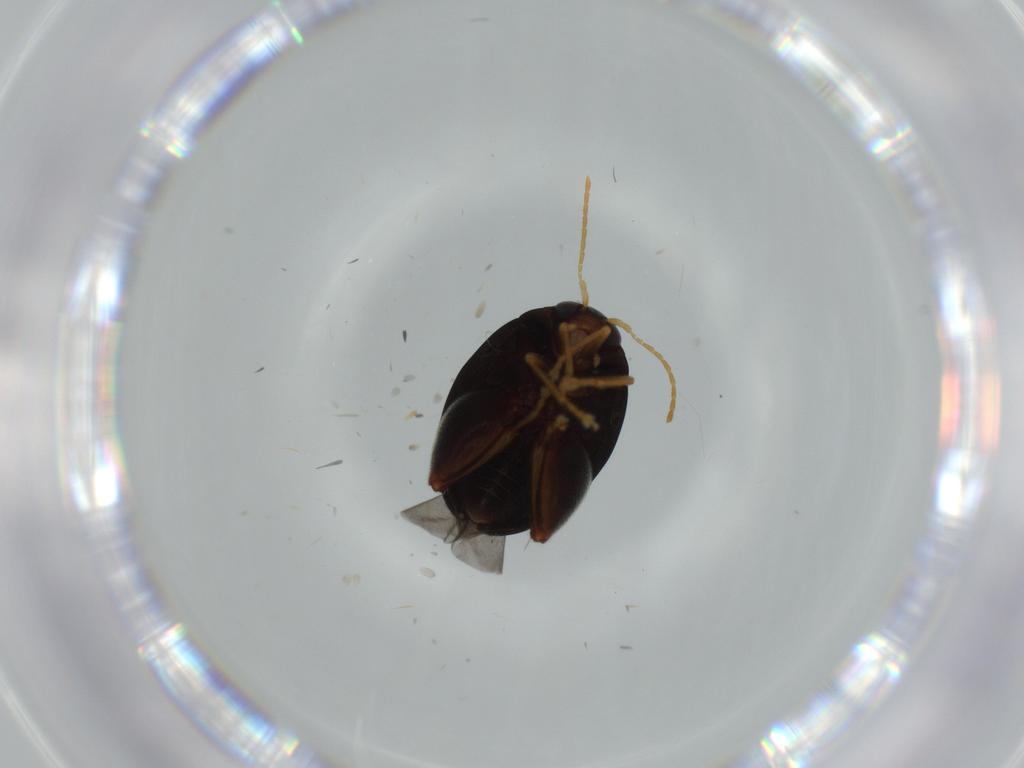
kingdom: Animalia
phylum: Arthropoda
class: Insecta
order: Coleoptera
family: Chrysomelidae
